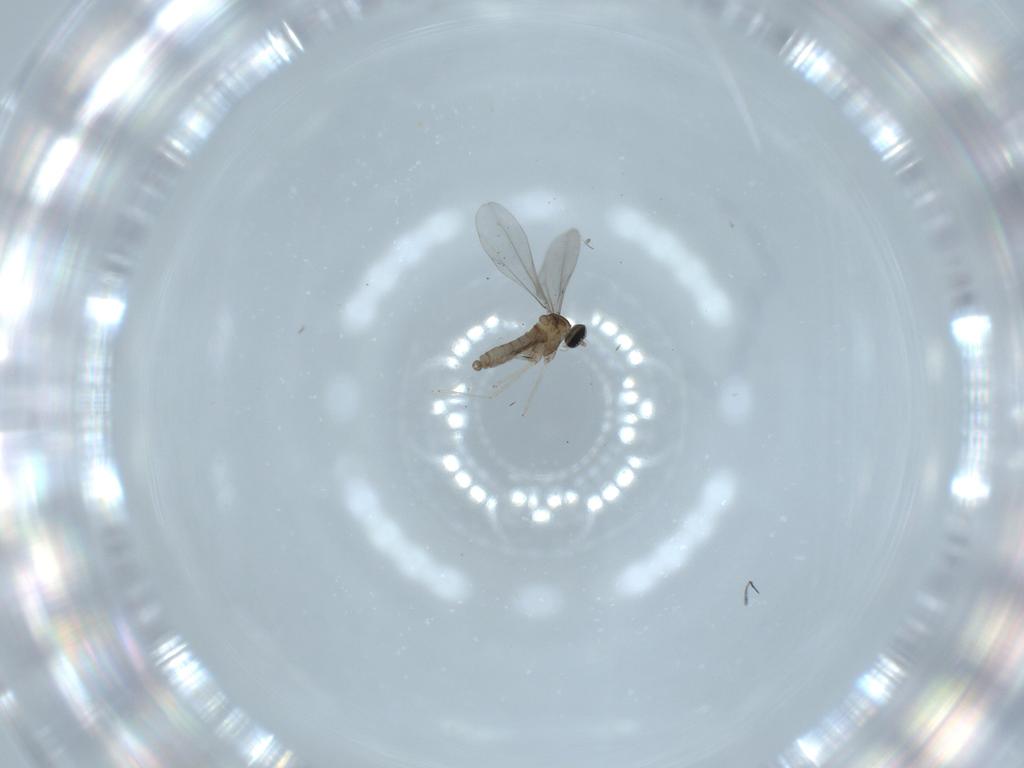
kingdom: Animalia
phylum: Arthropoda
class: Insecta
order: Diptera
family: Cecidomyiidae
